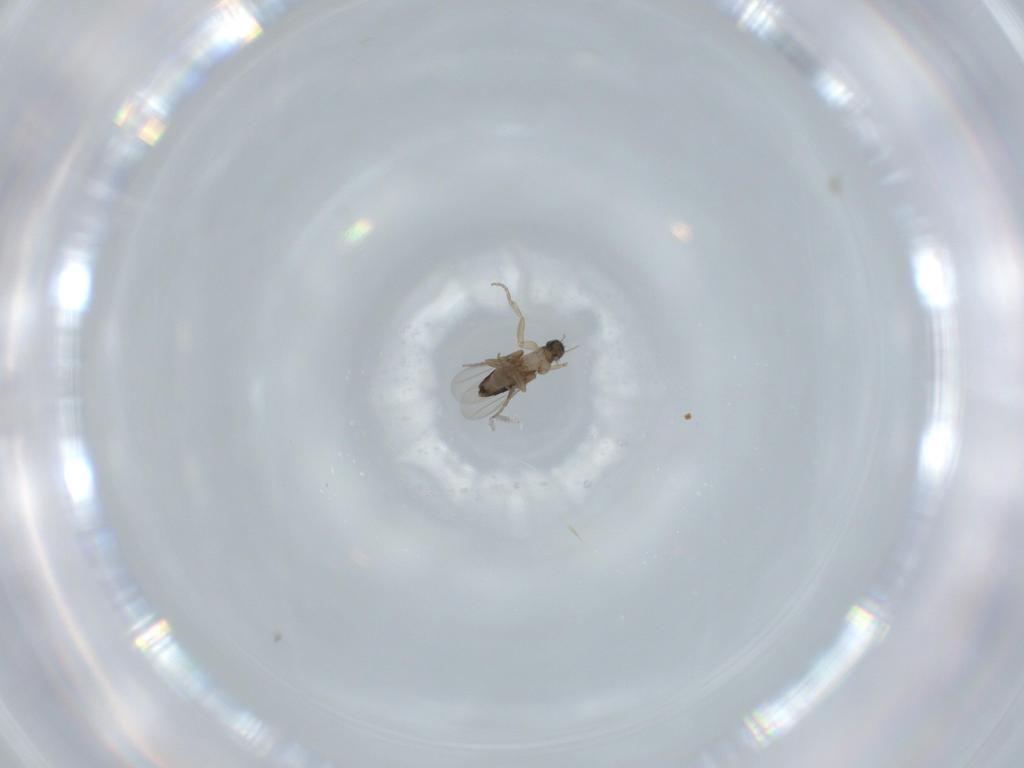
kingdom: Animalia
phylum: Arthropoda
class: Insecta
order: Diptera
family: Phoridae
